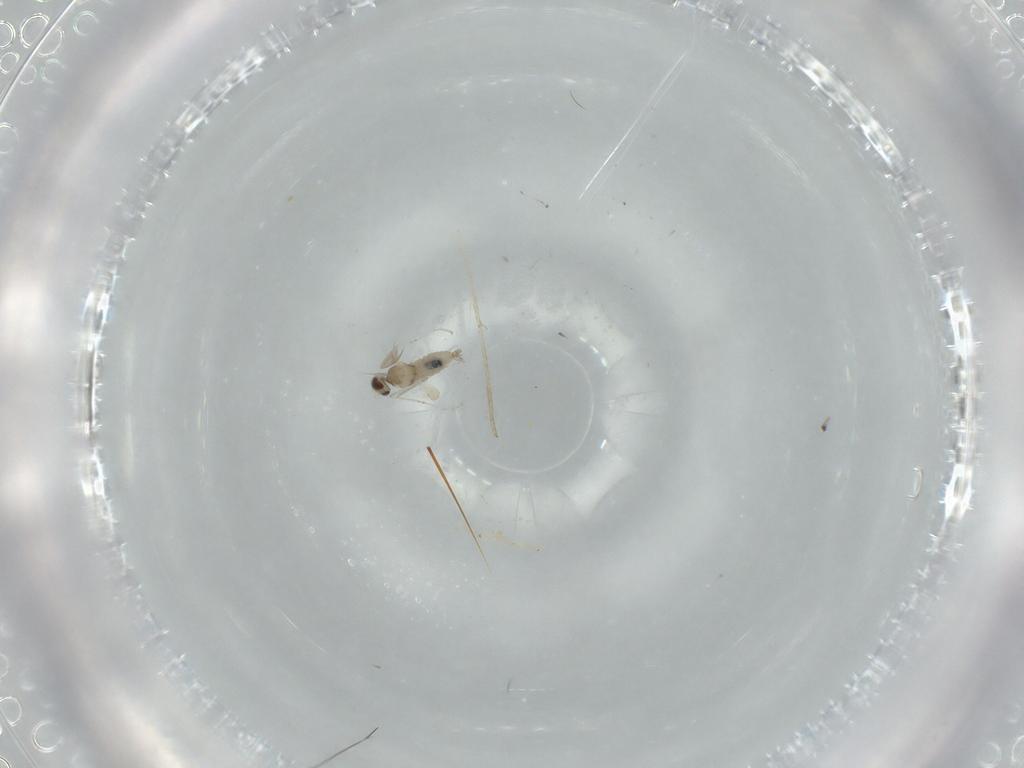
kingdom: Animalia
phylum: Arthropoda
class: Insecta
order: Diptera
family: Cecidomyiidae
